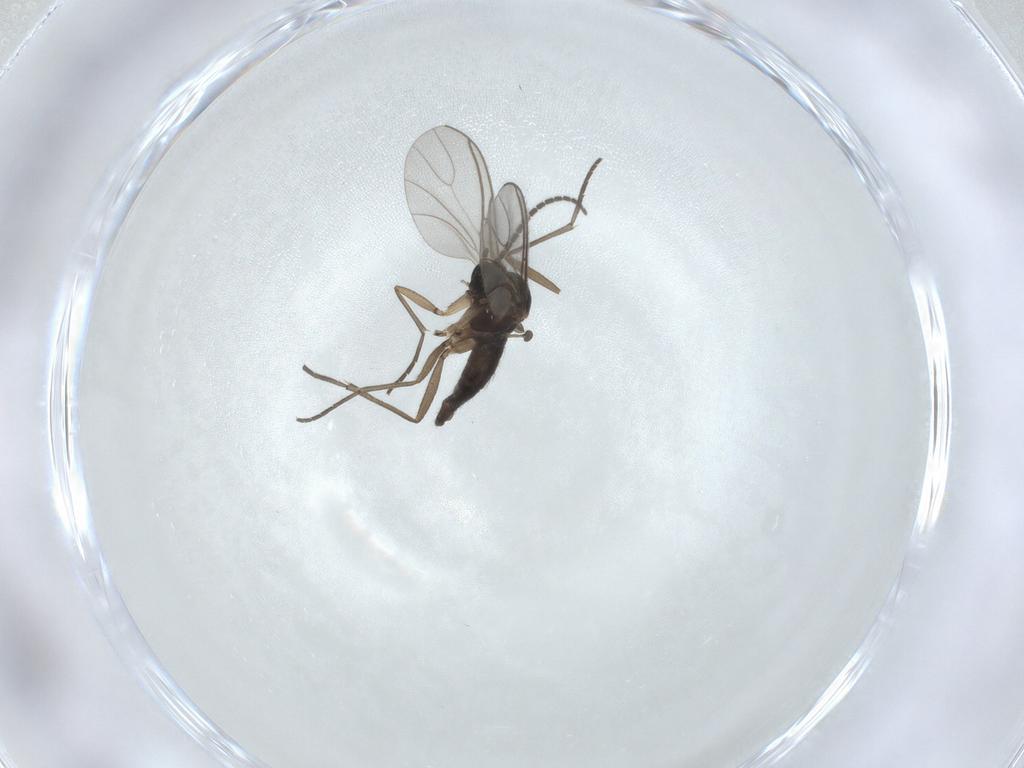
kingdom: Animalia
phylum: Arthropoda
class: Insecta
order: Diptera
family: Sciaridae
